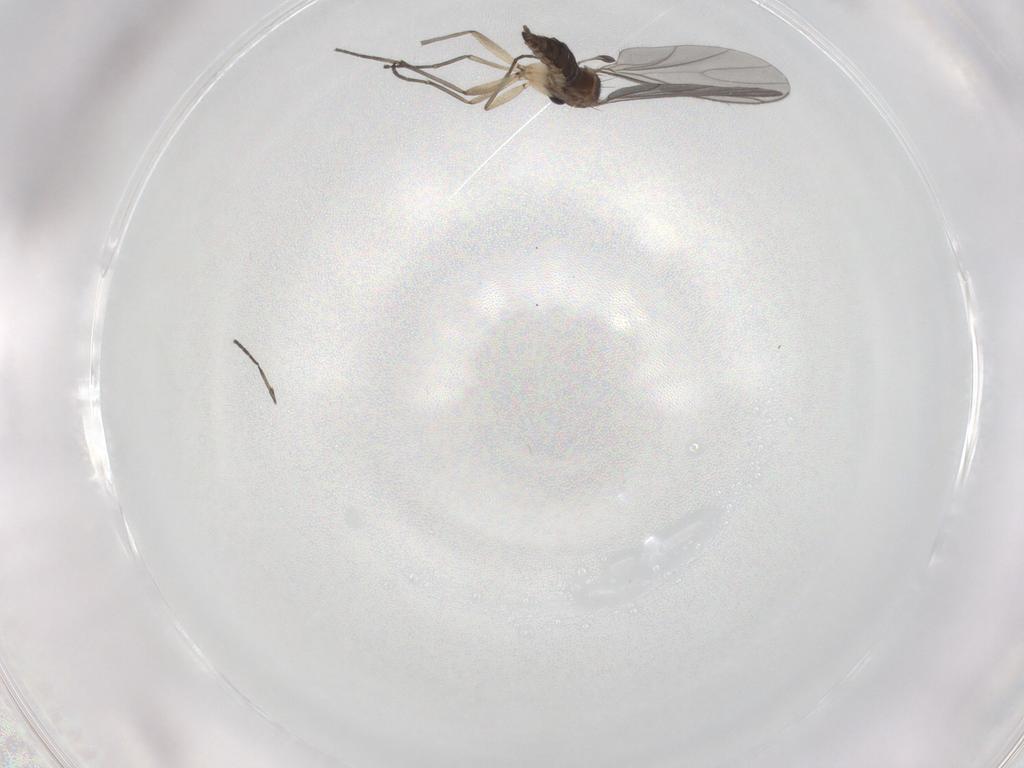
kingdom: Animalia
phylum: Arthropoda
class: Insecta
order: Diptera
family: Sciaridae
